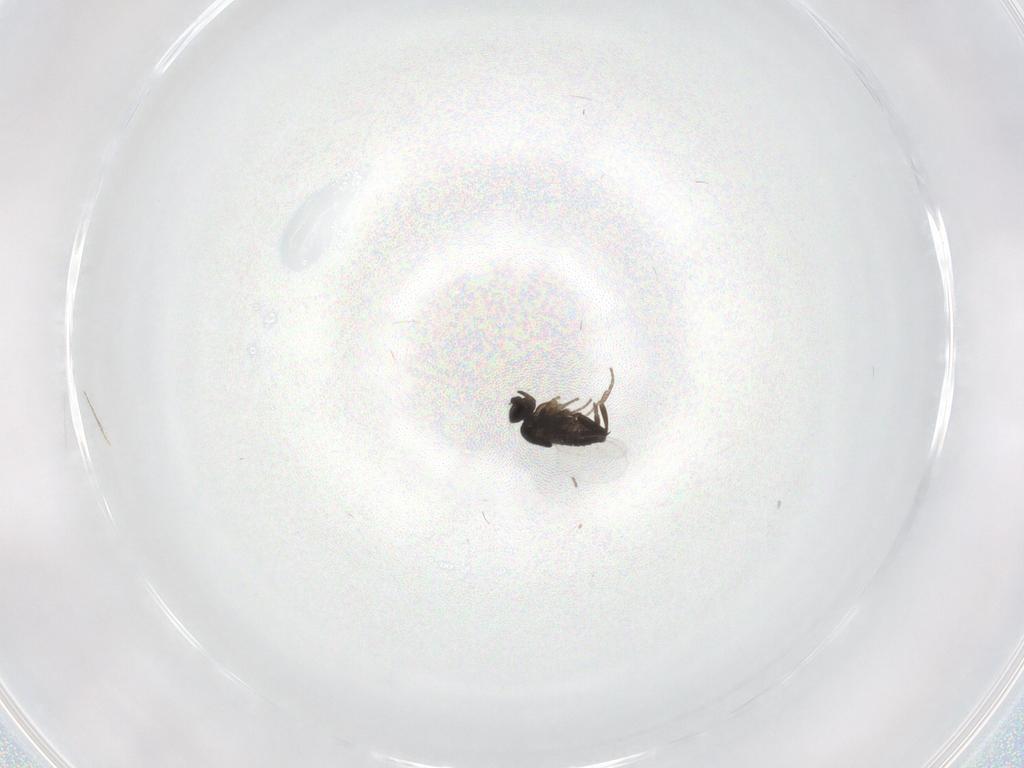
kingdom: Animalia
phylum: Arthropoda
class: Insecta
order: Diptera
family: Phoridae
